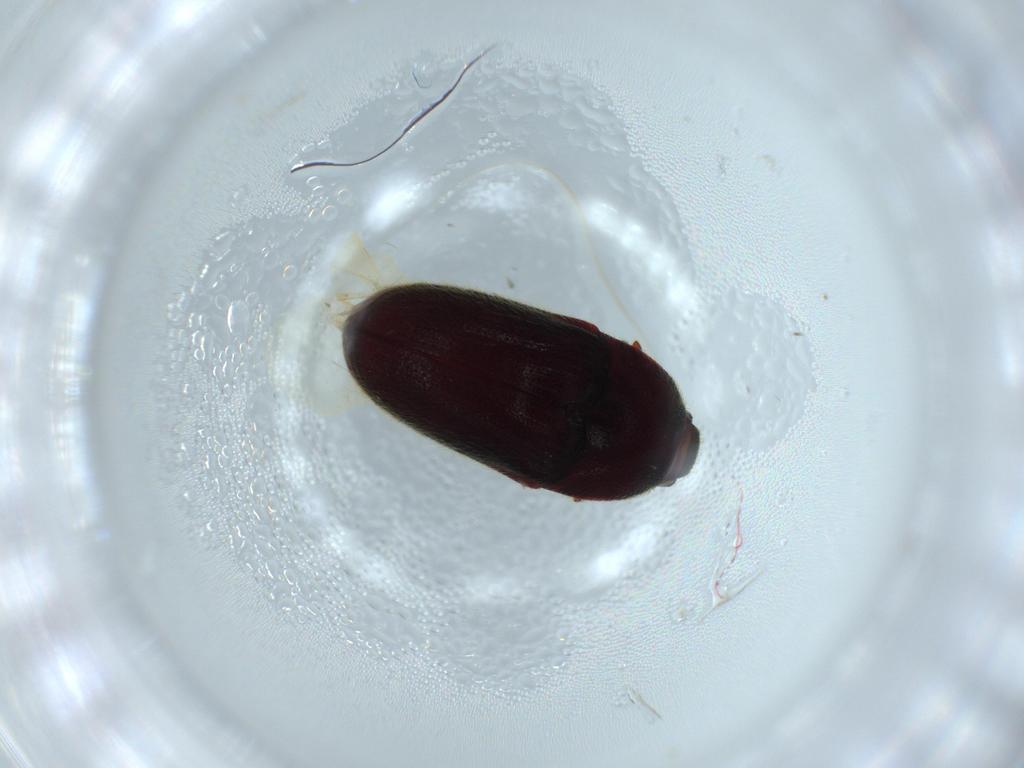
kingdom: Animalia
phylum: Arthropoda
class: Insecta
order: Coleoptera
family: Throscidae
